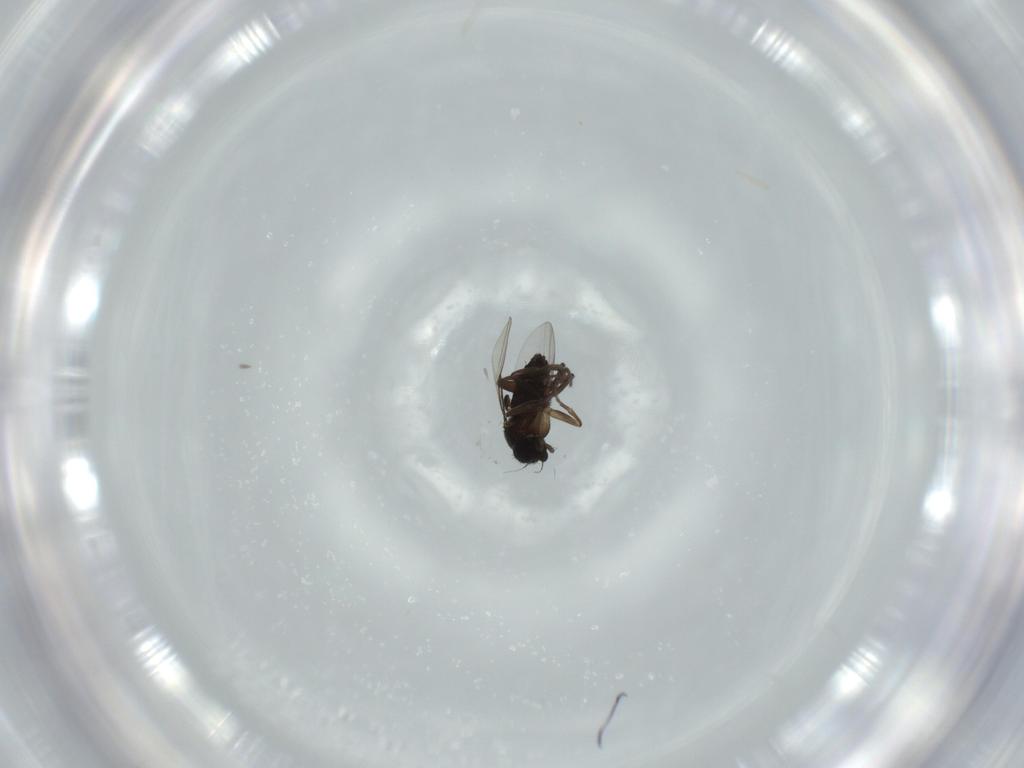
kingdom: Animalia
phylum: Arthropoda
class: Insecta
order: Diptera
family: Phoridae
